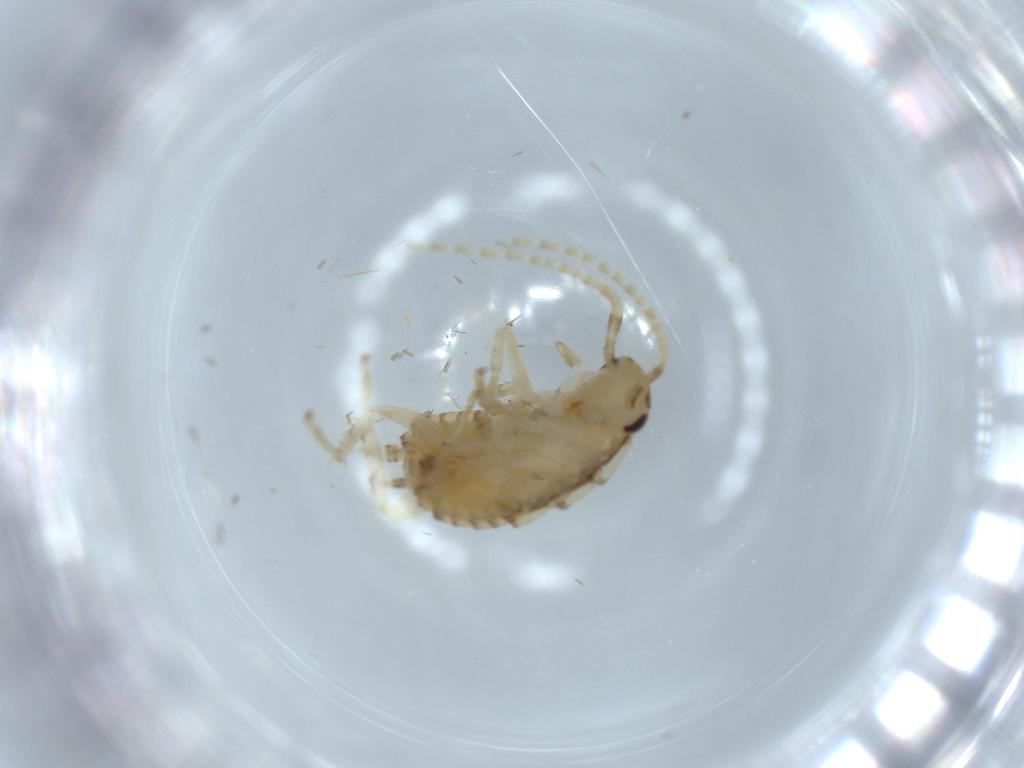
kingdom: Animalia
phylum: Arthropoda
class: Insecta
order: Blattodea
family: Ectobiidae
